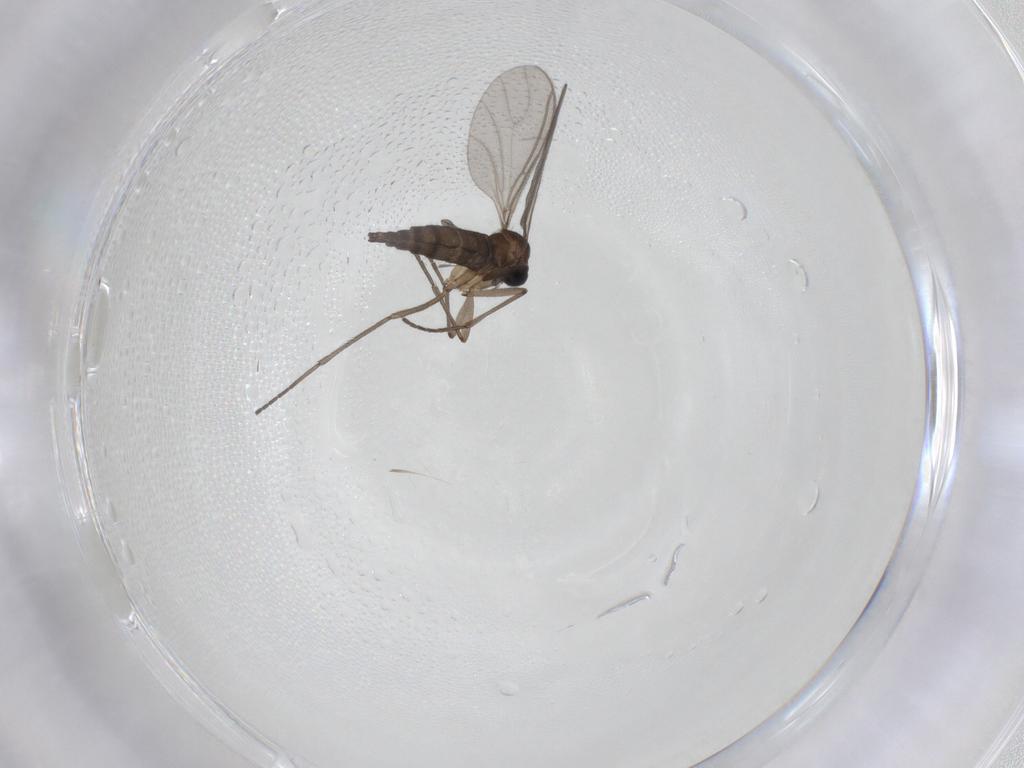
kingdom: Animalia
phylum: Arthropoda
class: Insecta
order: Diptera
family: Sciaridae
